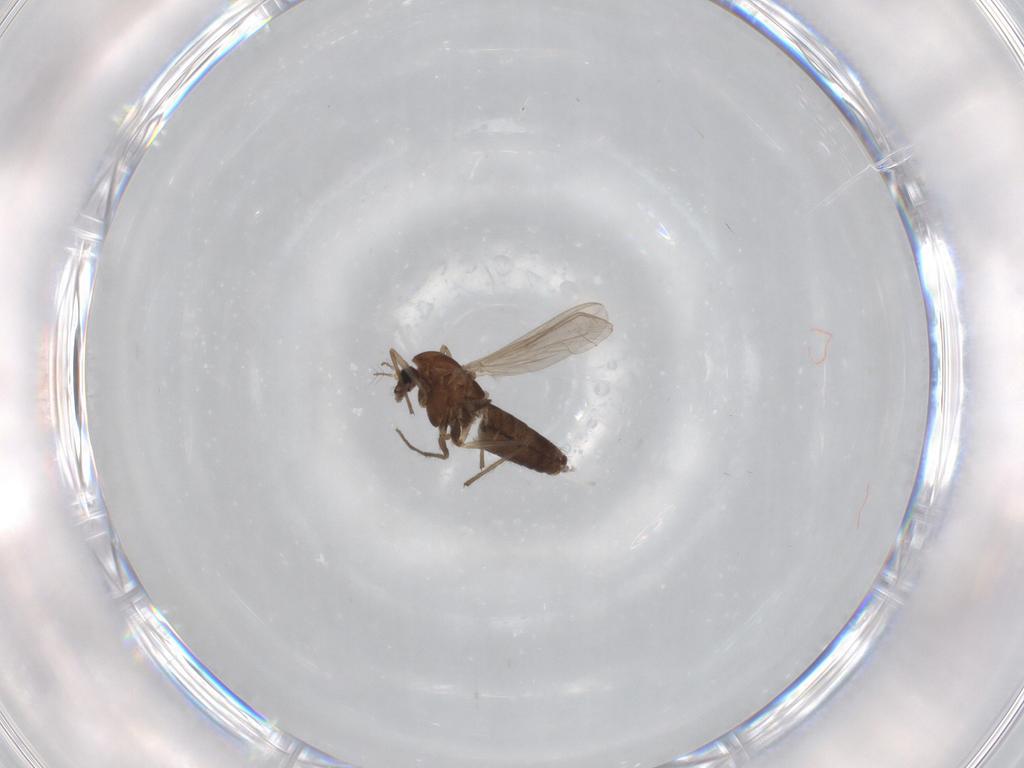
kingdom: Animalia
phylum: Arthropoda
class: Insecta
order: Diptera
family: Chironomidae
